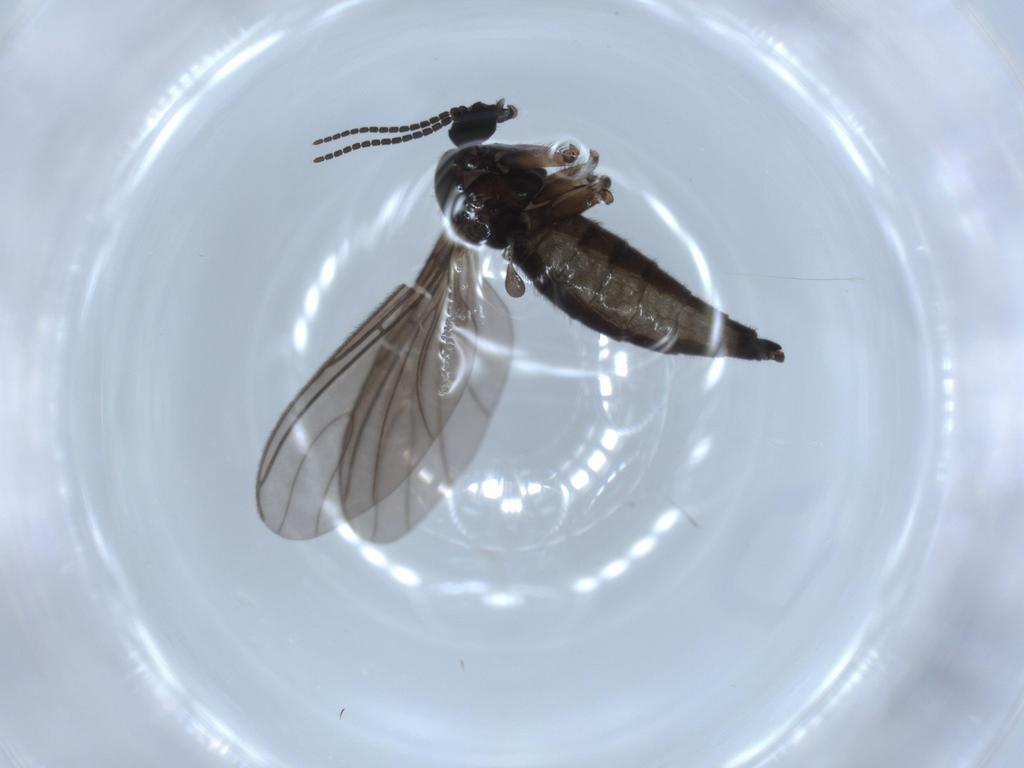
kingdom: Animalia
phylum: Arthropoda
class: Insecta
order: Diptera
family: Sciaridae
